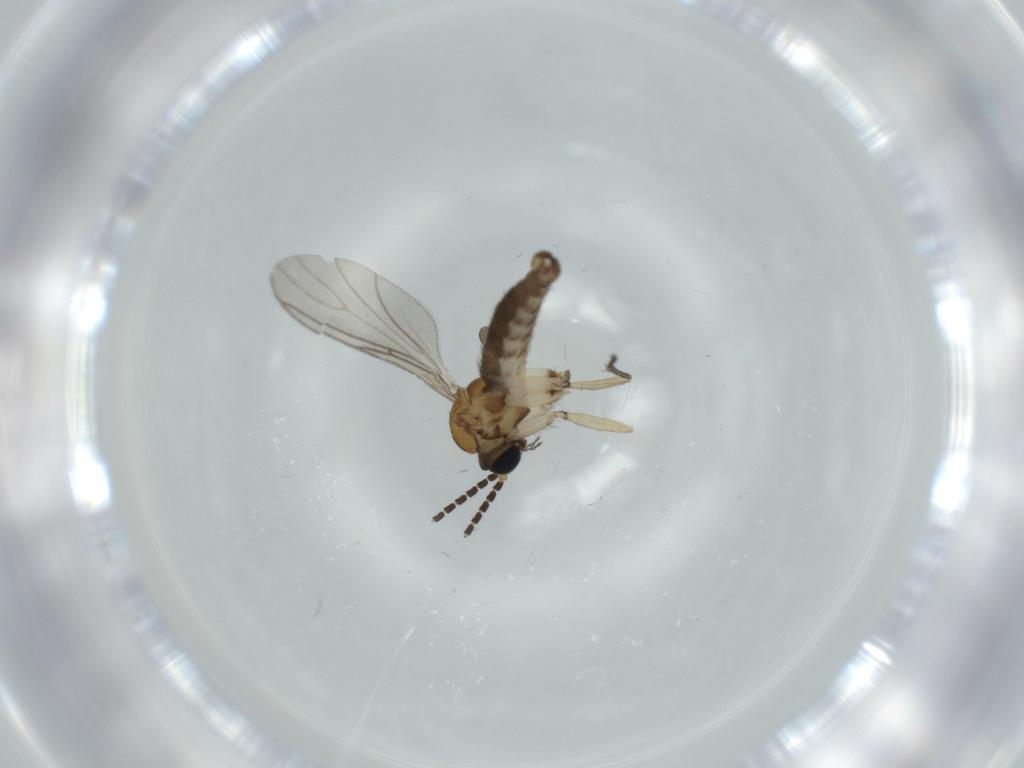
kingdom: Animalia
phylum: Arthropoda
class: Insecta
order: Diptera
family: Sciaridae
